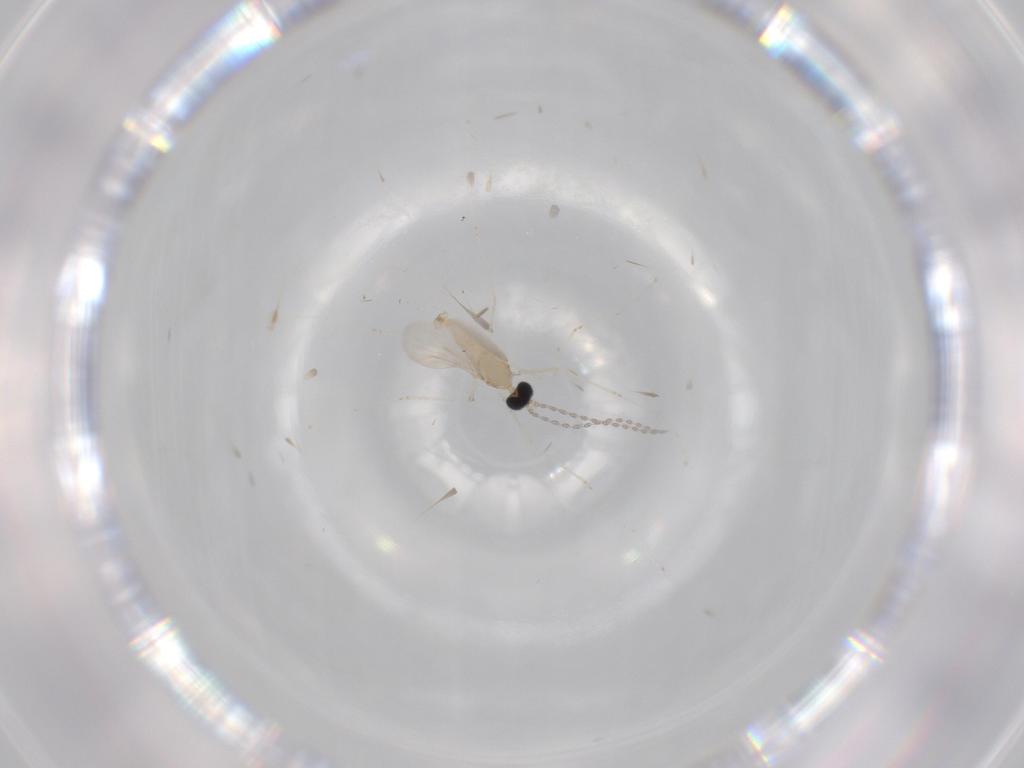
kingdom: Animalia
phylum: Arthropoda
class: Insecta
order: Diptera
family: Cecidomyiidae
